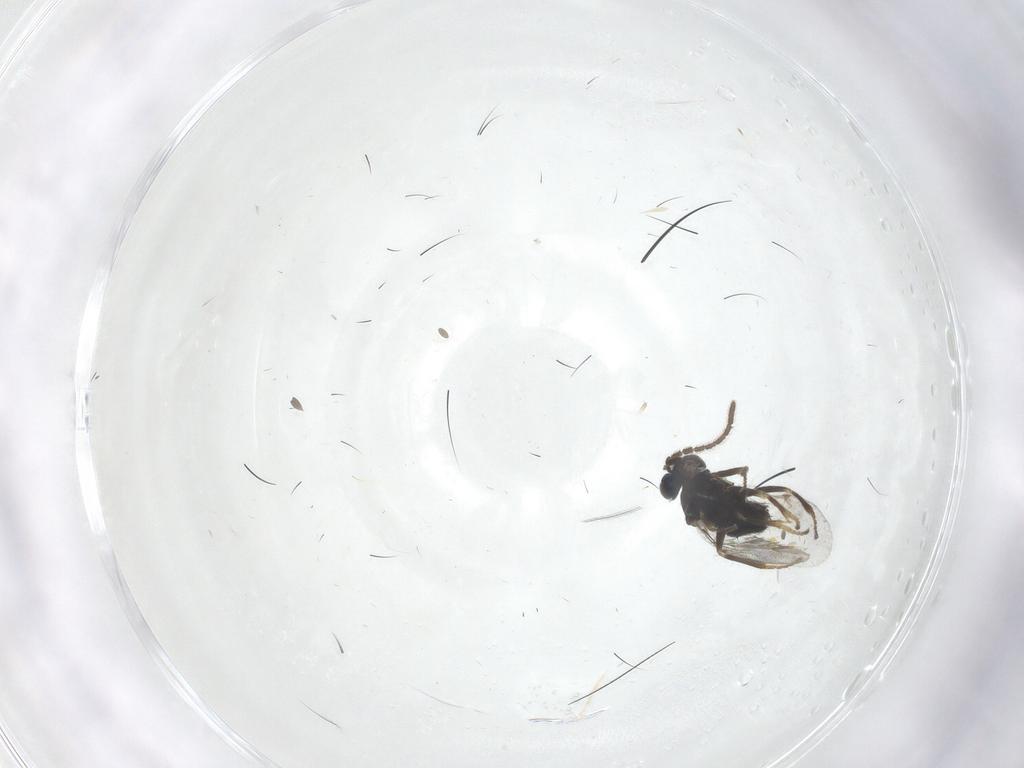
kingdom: Animalia
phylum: Arthropoda
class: Insecta
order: Hymenoptera
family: Encyrtidae
